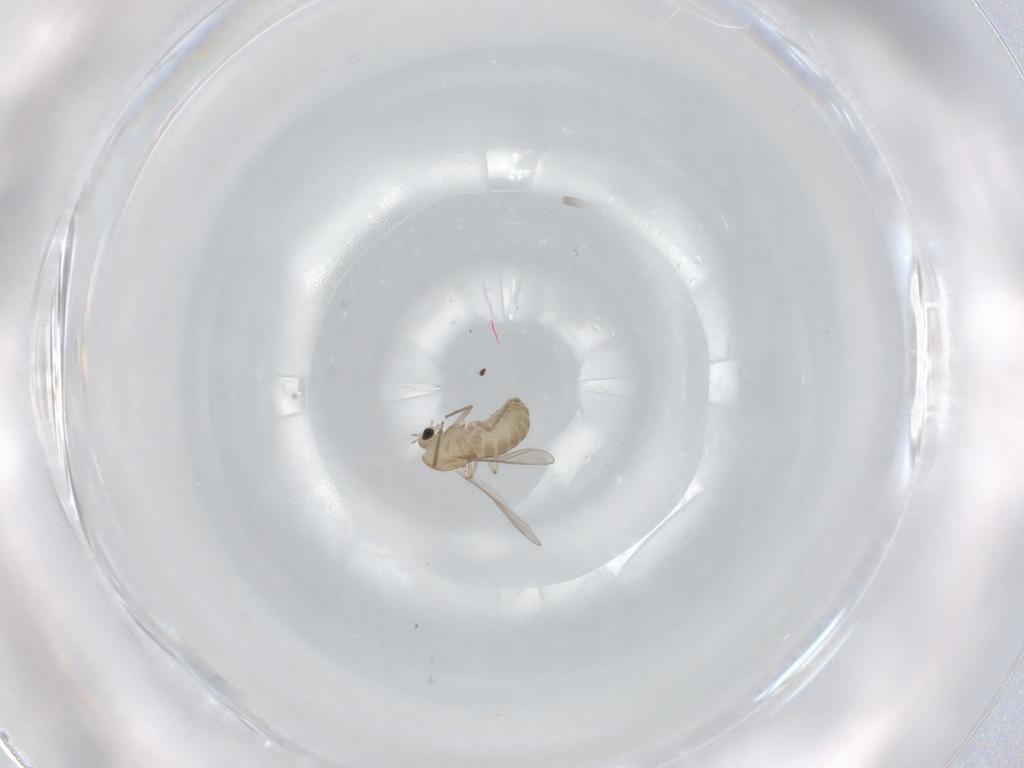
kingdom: Animalia
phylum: Arthropoda
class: Insecta
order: Diptera
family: Chironomidae
